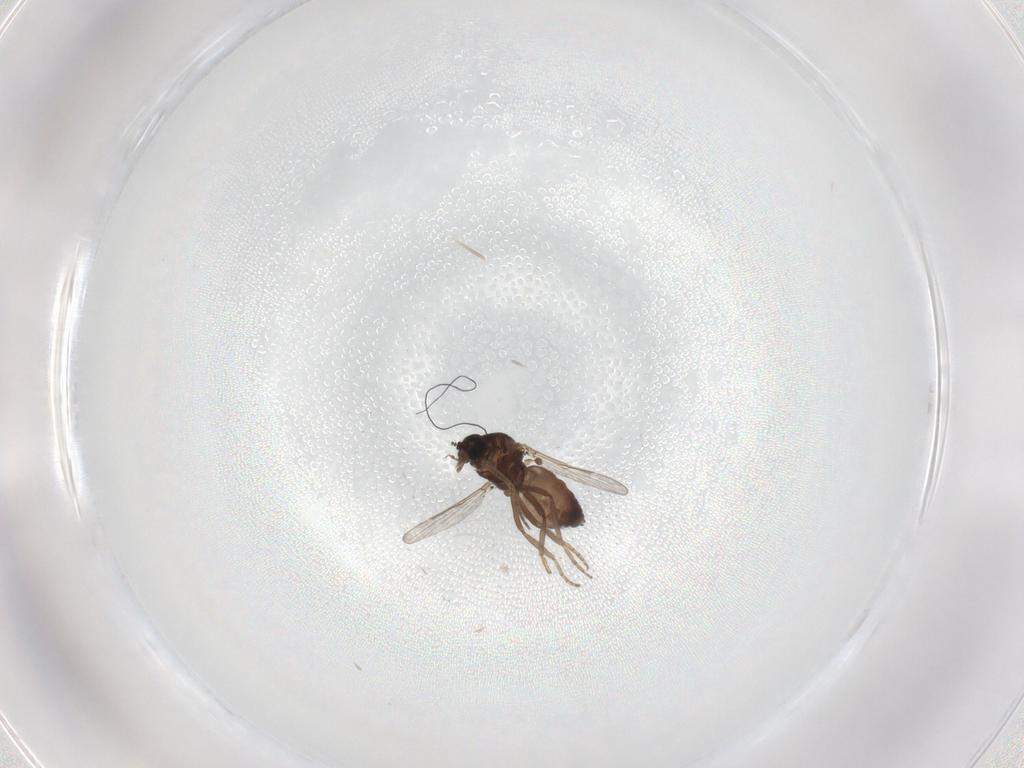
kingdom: Animalia
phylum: Arthropoda
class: Insecta
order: Diptera
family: Ceratopogonidae
